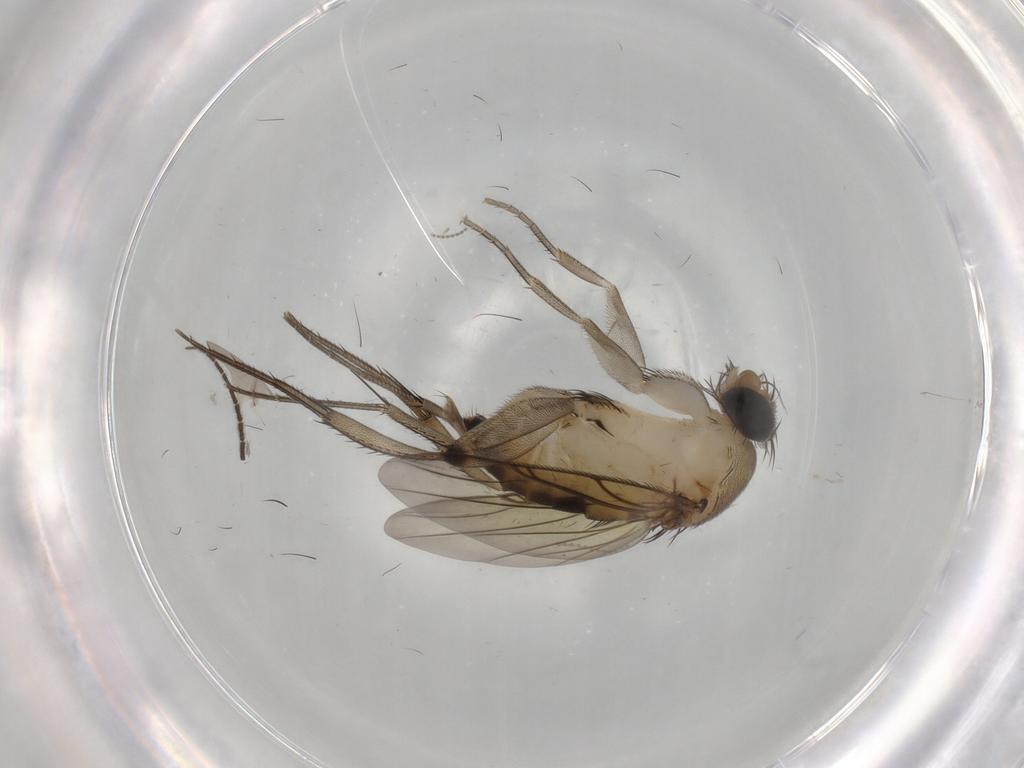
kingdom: Animalia
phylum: Arthropoda
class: Insecta
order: Diptera
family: Phoridae
